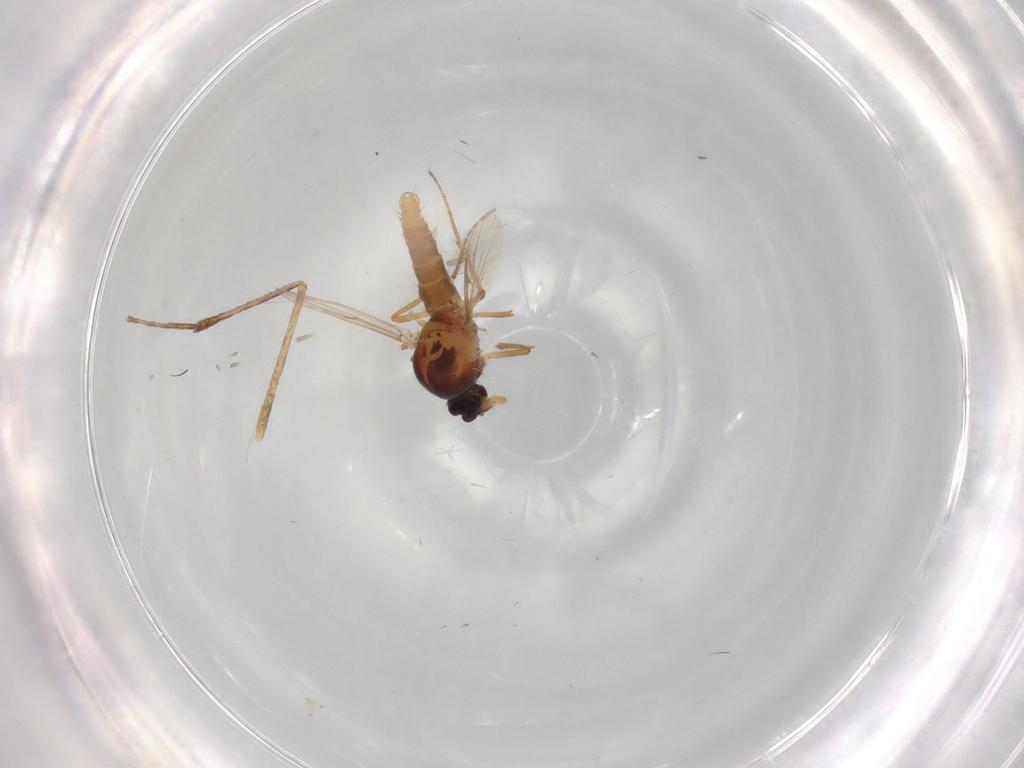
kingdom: Animalia
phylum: Arthropoda
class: Insecta
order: Diptera
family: Ceratopogonidae
